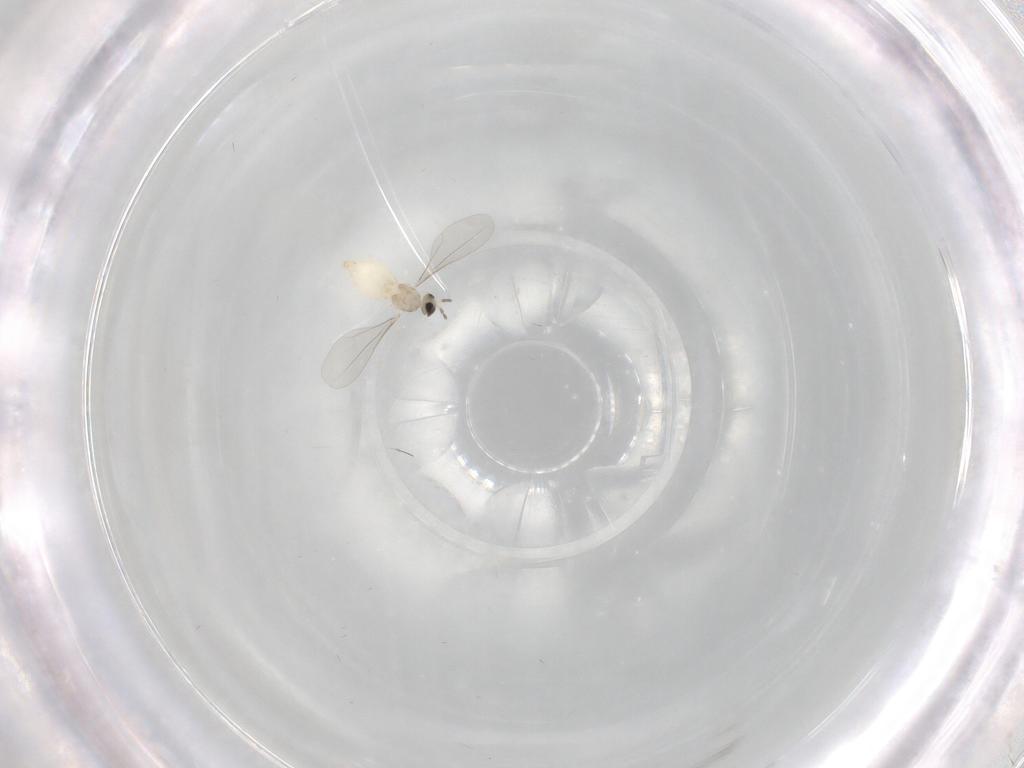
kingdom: Animalia
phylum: Arthropoda
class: Insecta
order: Diptera
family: Cecidomyiidae
